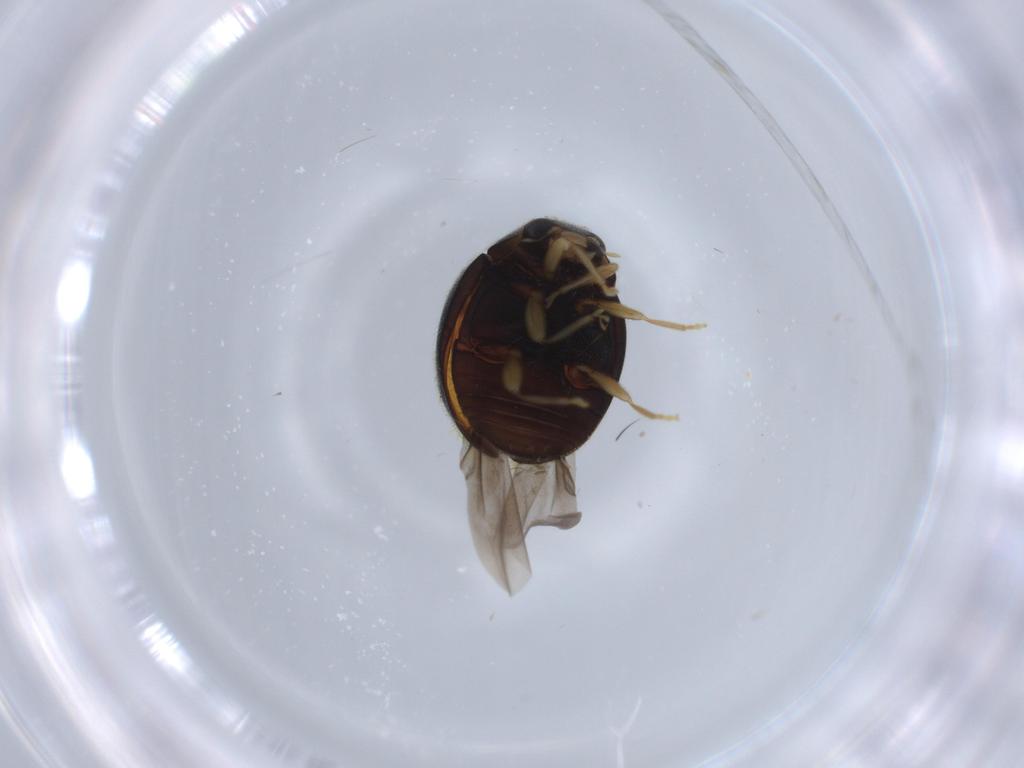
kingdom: Animalia
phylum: Arthropoda
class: Insecta
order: Coleoptera
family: Coccinellidae
